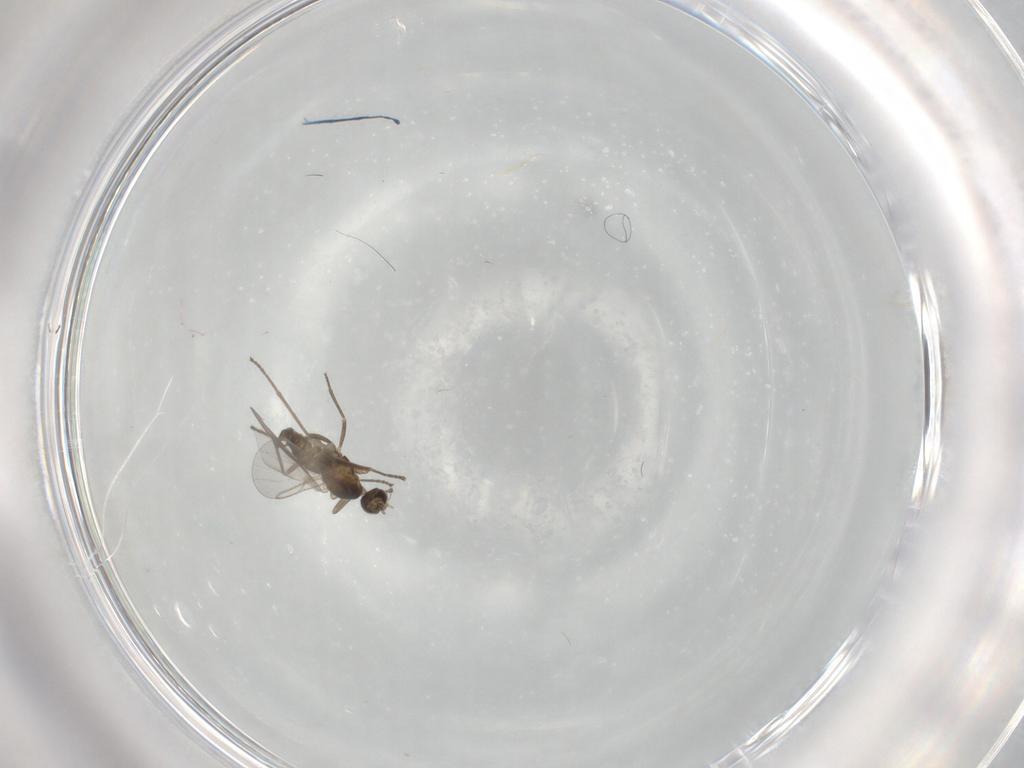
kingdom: Animalia
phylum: Arthropoda
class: Insecta
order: Diptera
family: Cecidomyiidae
